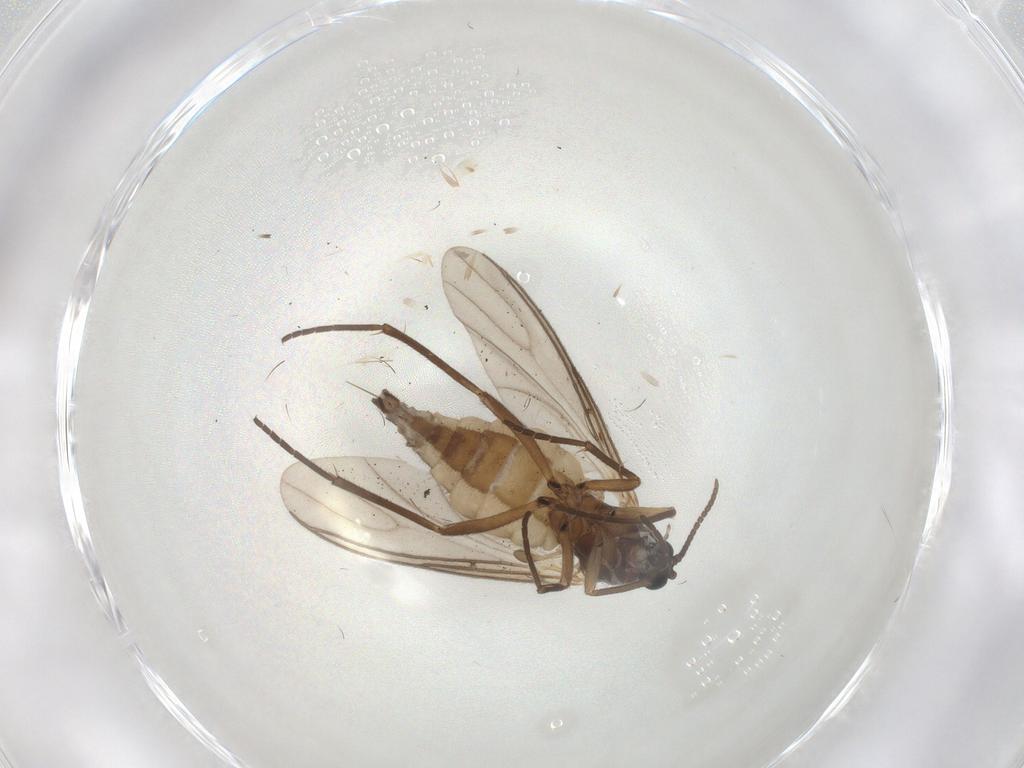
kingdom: Animalia
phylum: Arthropoda
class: Insecta
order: Diptera
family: Sciaridae
